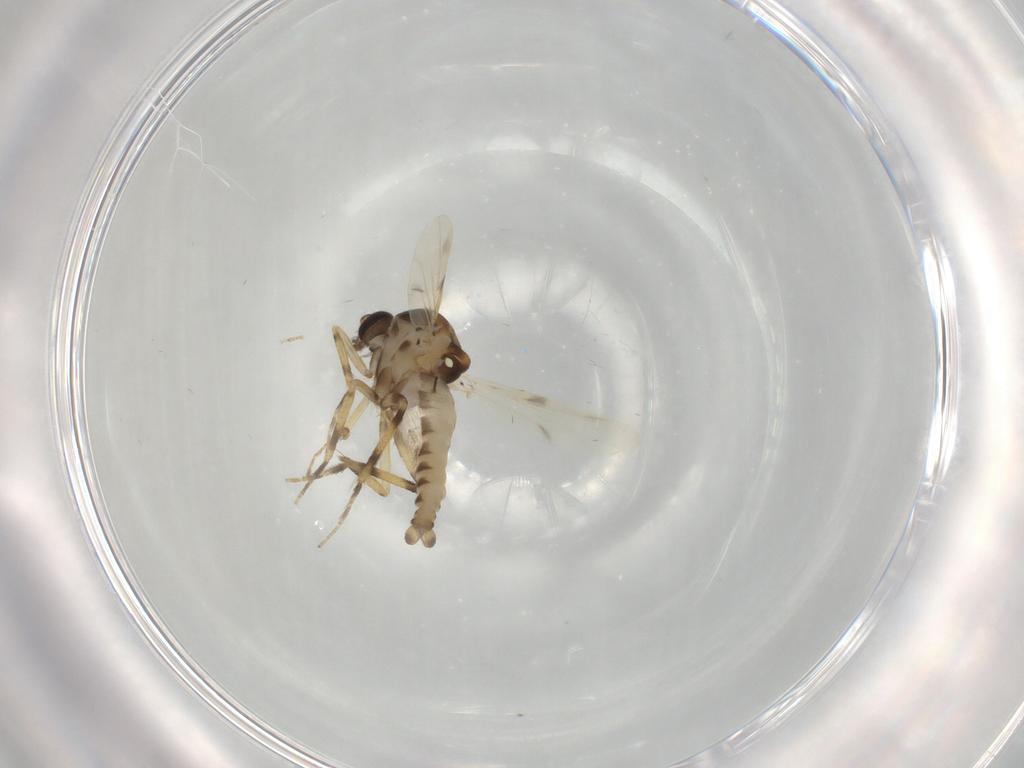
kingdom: Animalia
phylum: Arthropoda
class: Insecta
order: Diptera
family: Ceratopogonidae
